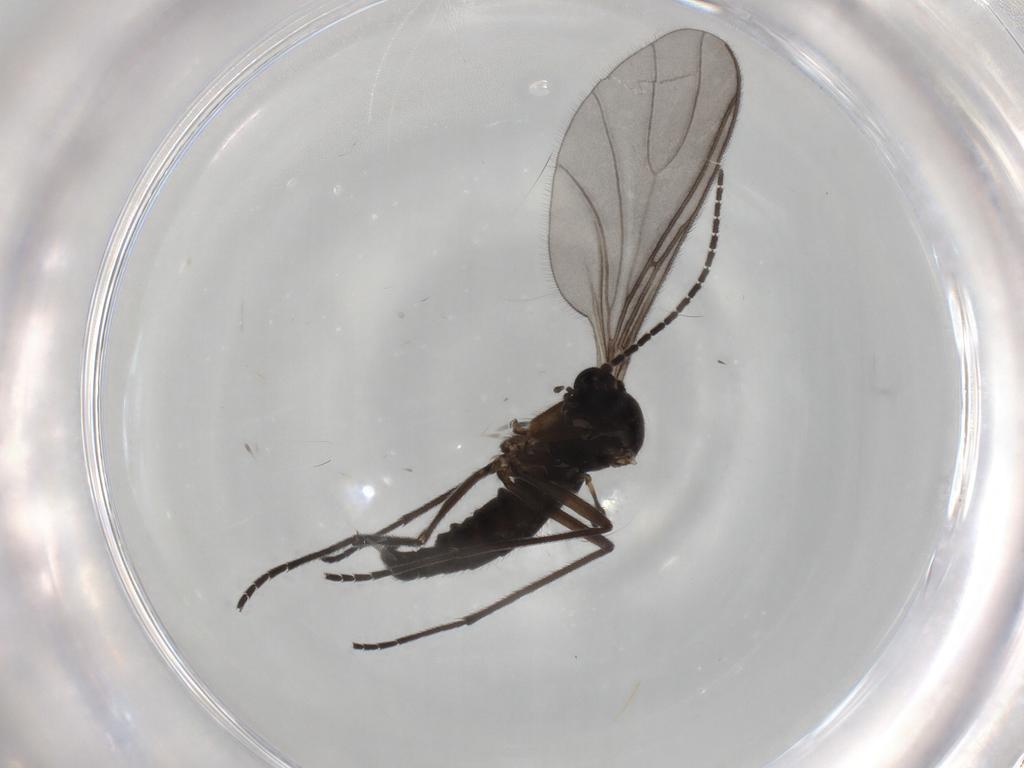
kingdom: Animalia
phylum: Arthropoda
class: Insecta
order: Diptera
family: Sciaridae
